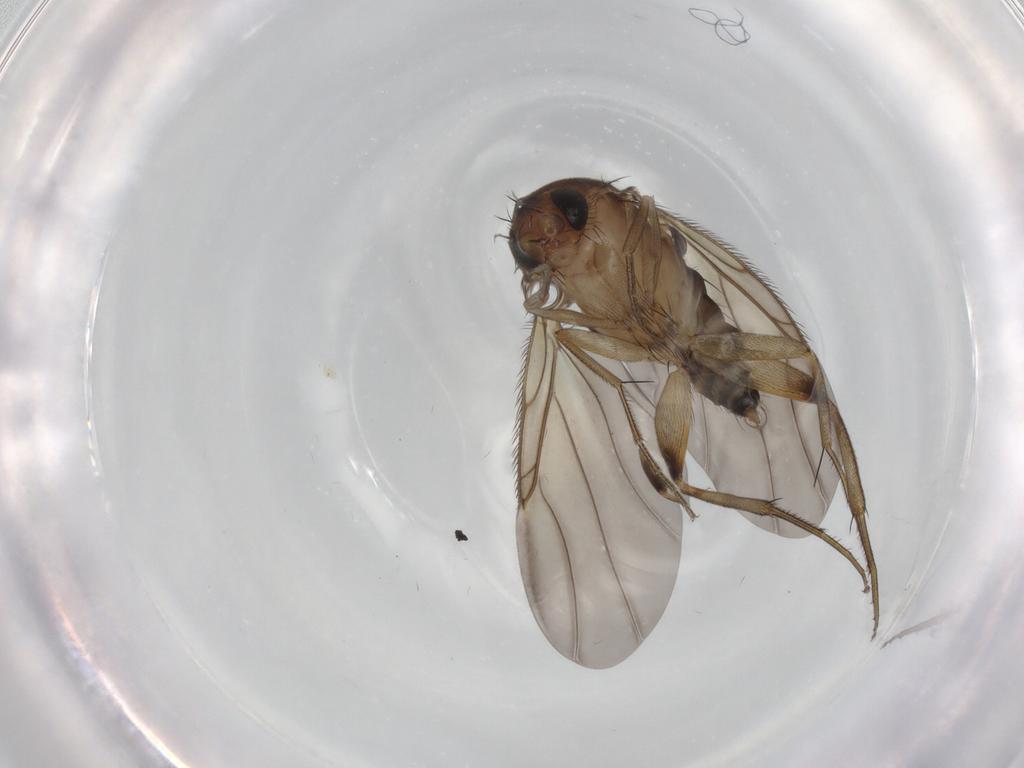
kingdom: Animalia
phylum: Arthropoda
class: Insecta
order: Diptera
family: Phoridae
